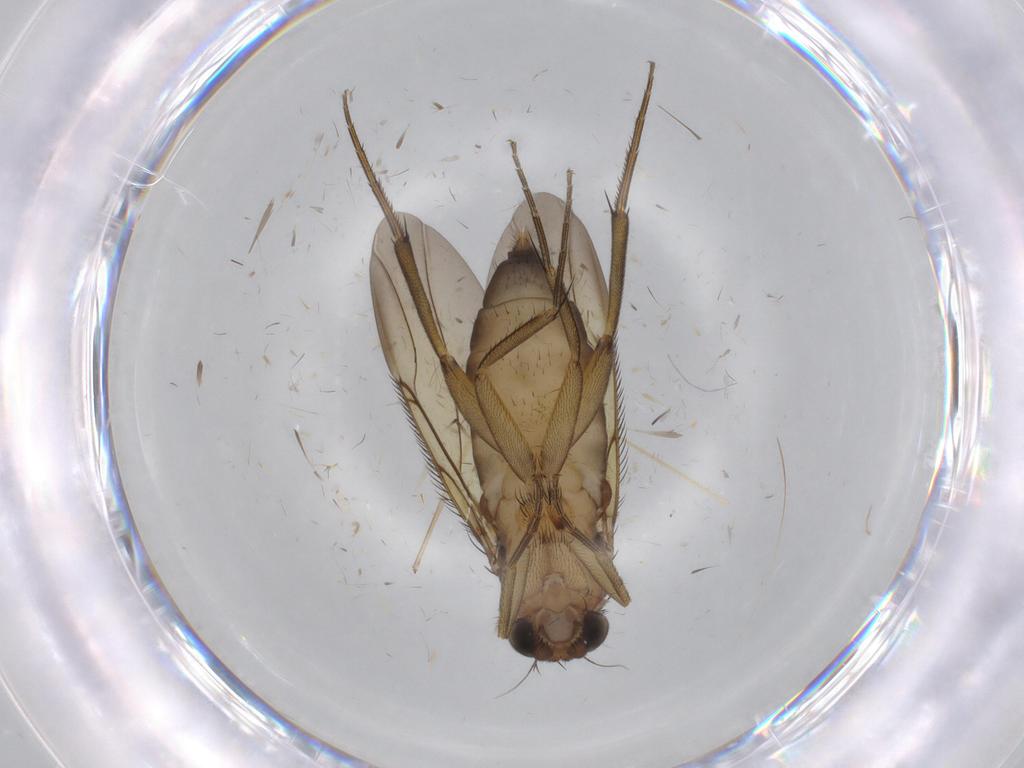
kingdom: Animalia
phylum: Arthropoda
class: Insecta
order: Diptera
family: Phoridae
